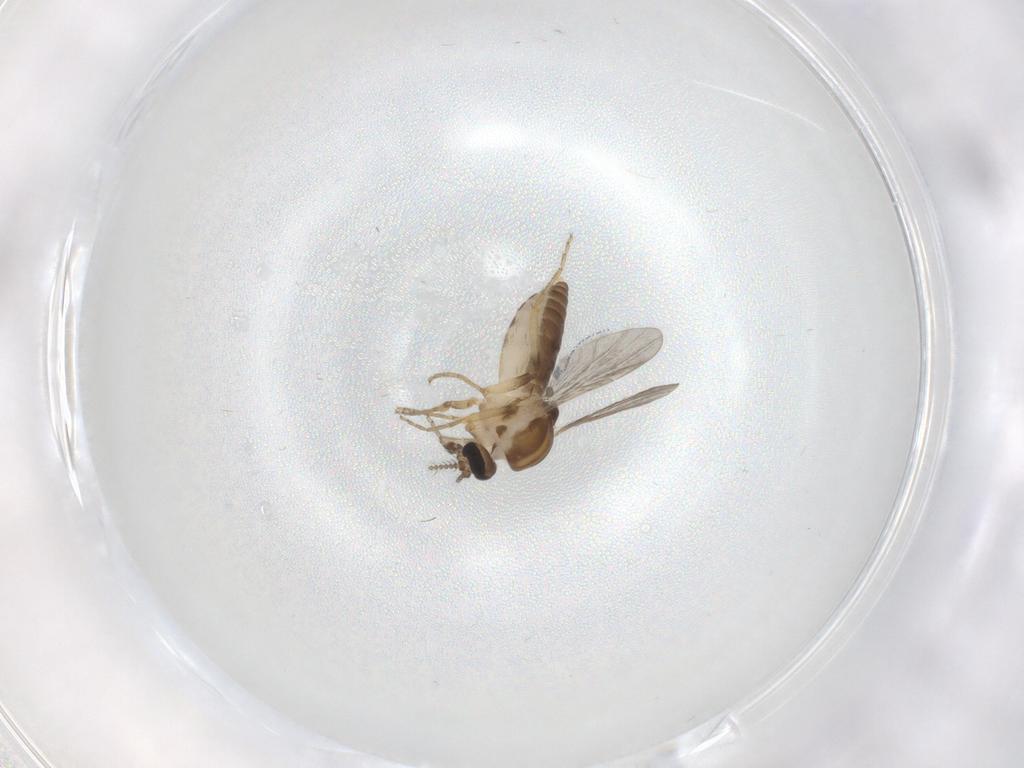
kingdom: Animalia
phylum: Arthropoda
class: Insecta
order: Diptera
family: Ceratopogonidae
